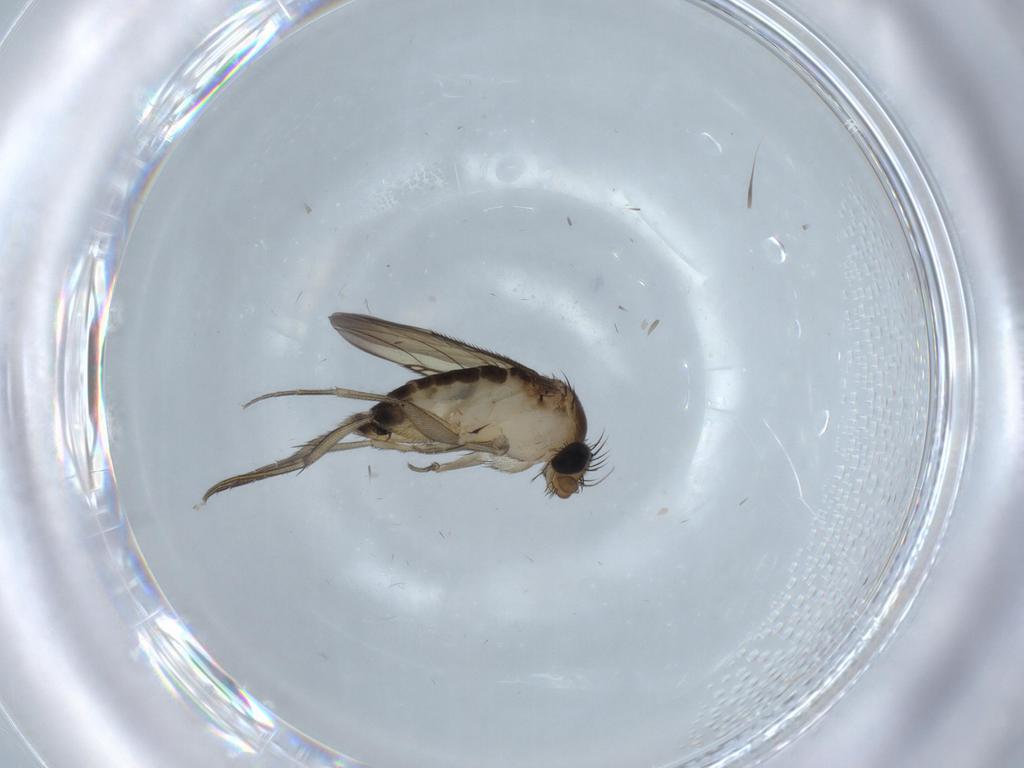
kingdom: Animalia
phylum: Arthropoda
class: Insecta
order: Diptera
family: Phoridae
